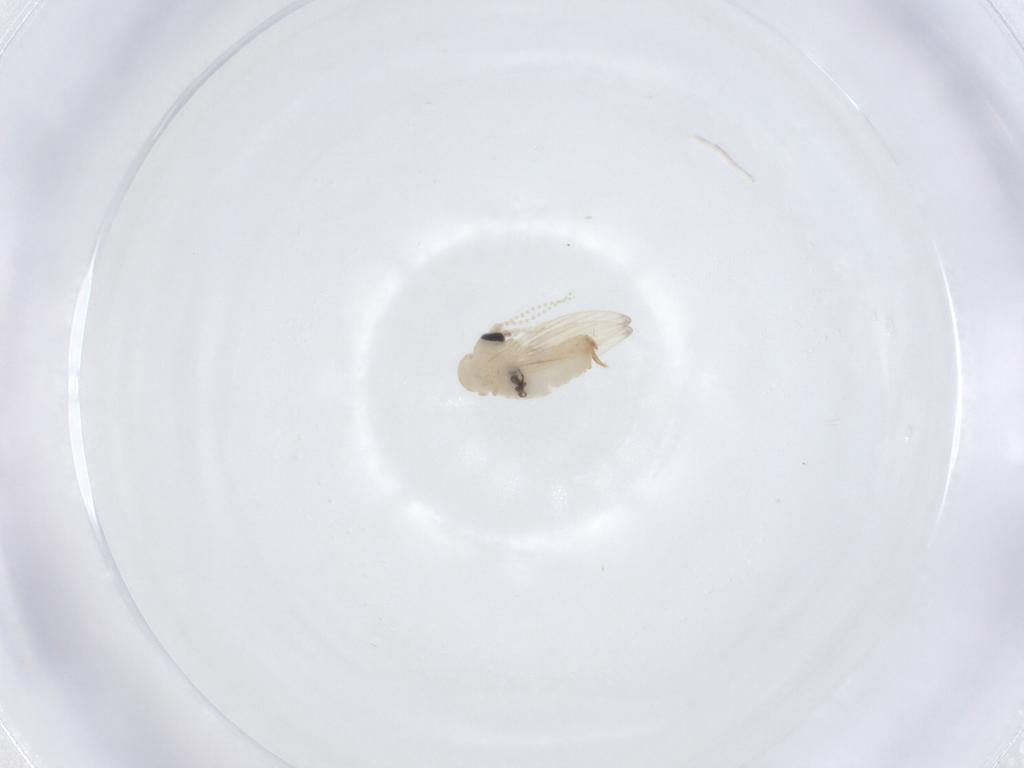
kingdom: Animalia
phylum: Arthropoda
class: Insecta
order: Diptera
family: Psychodidae
